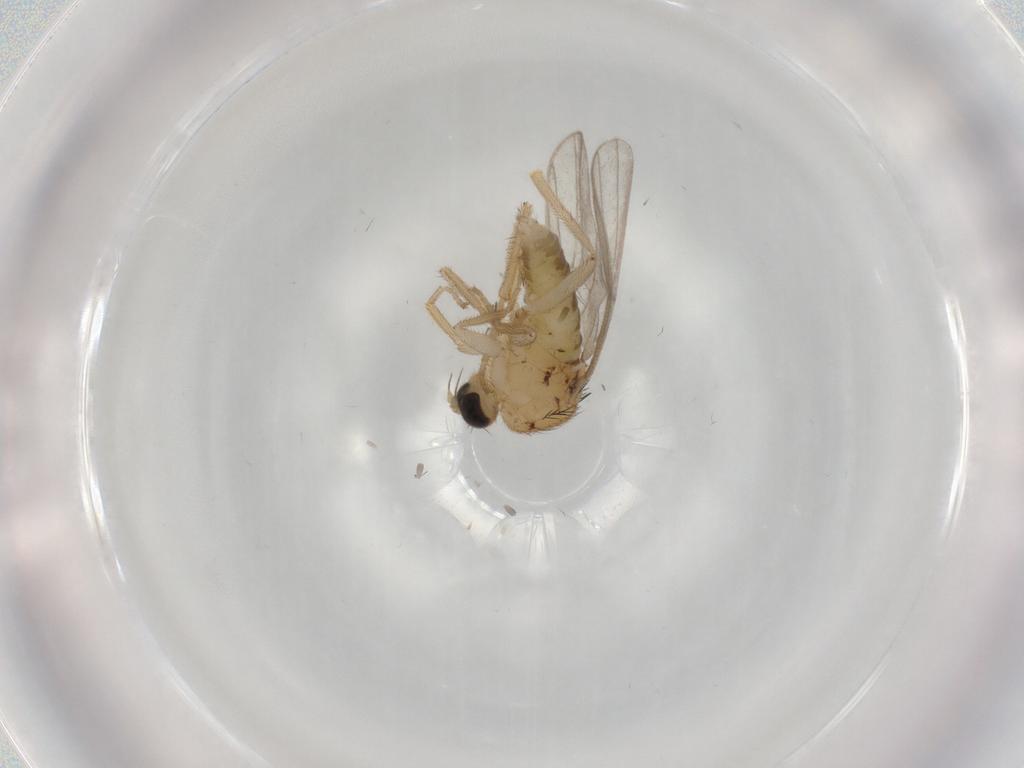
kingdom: Animalia
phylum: Arthropoda
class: Insecta
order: Diptera
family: Hybotidae
